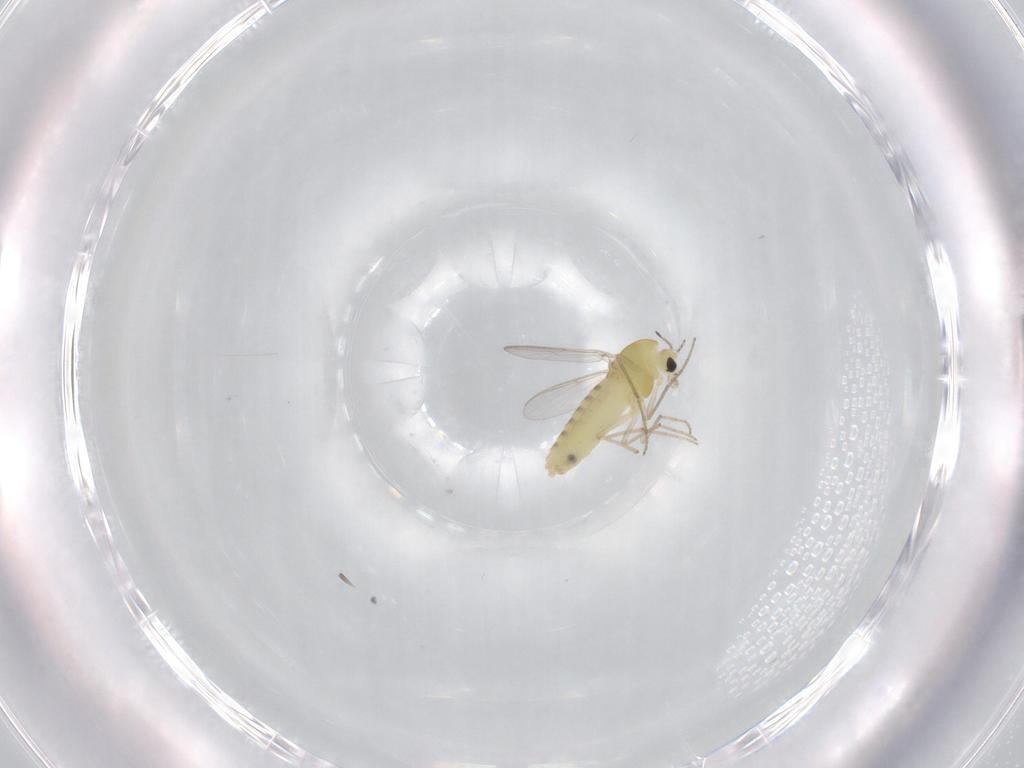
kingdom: Animalia
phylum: Arthropoda
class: Insecta
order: Diptera
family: Chironomidae
